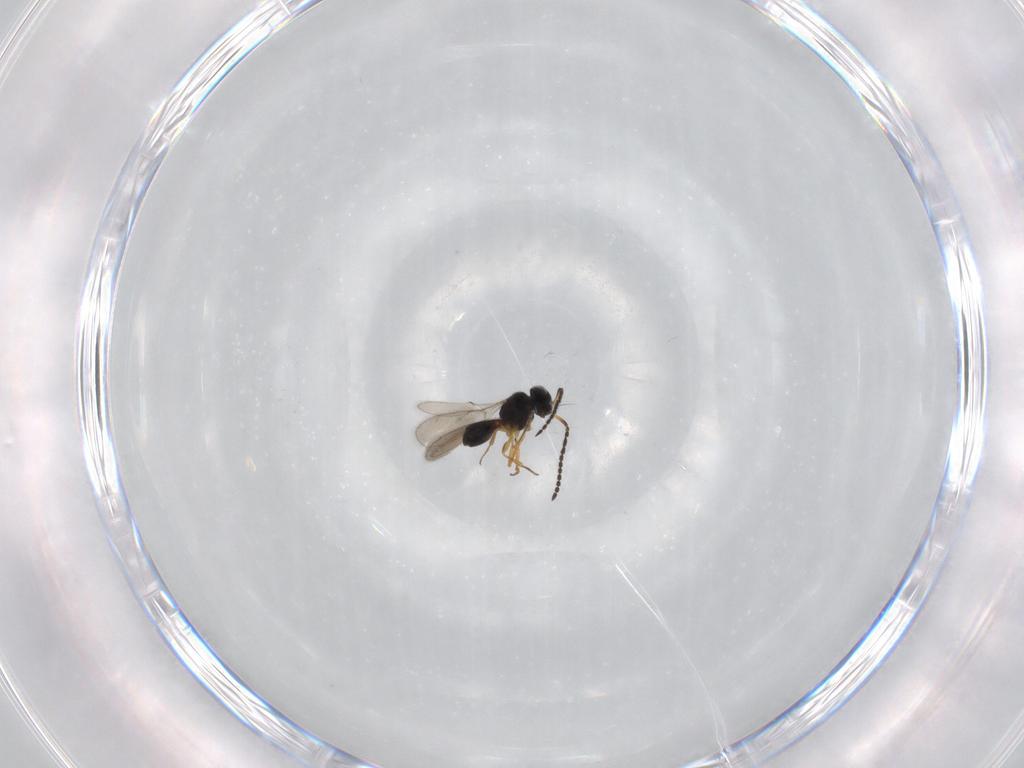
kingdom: Animalia
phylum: Arthropoda
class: Insecta
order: Hymenoptera
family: Scelionidae
